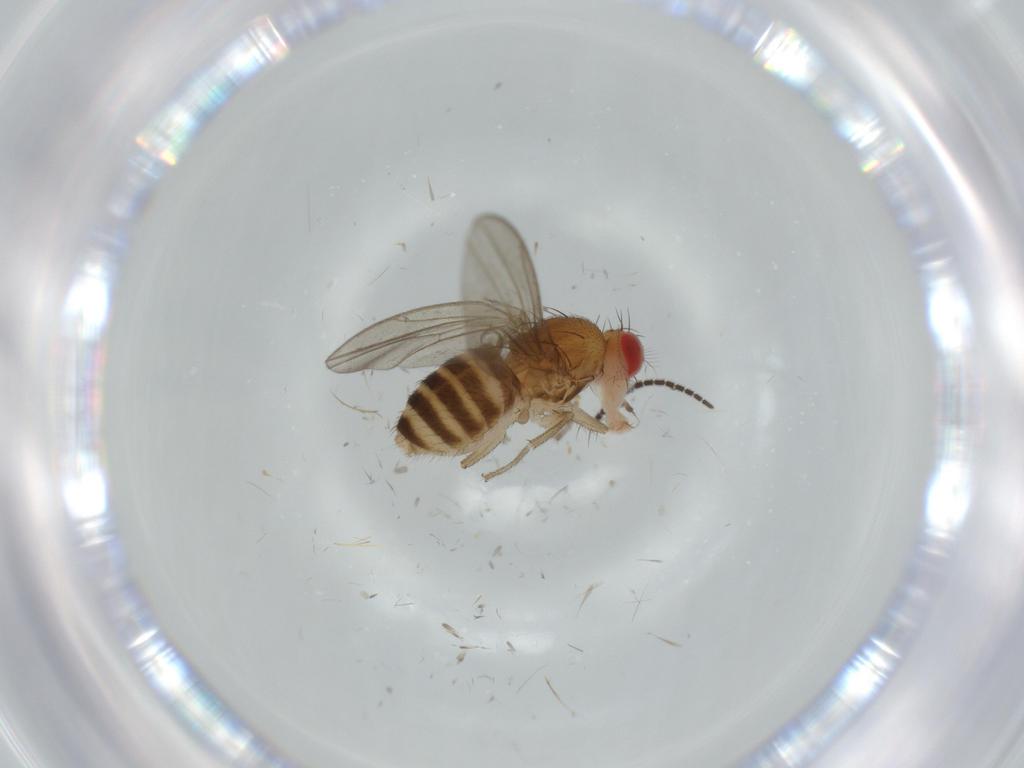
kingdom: Animalia
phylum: Arthropoda
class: Insecta
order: Diptera
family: Drosophilidae
